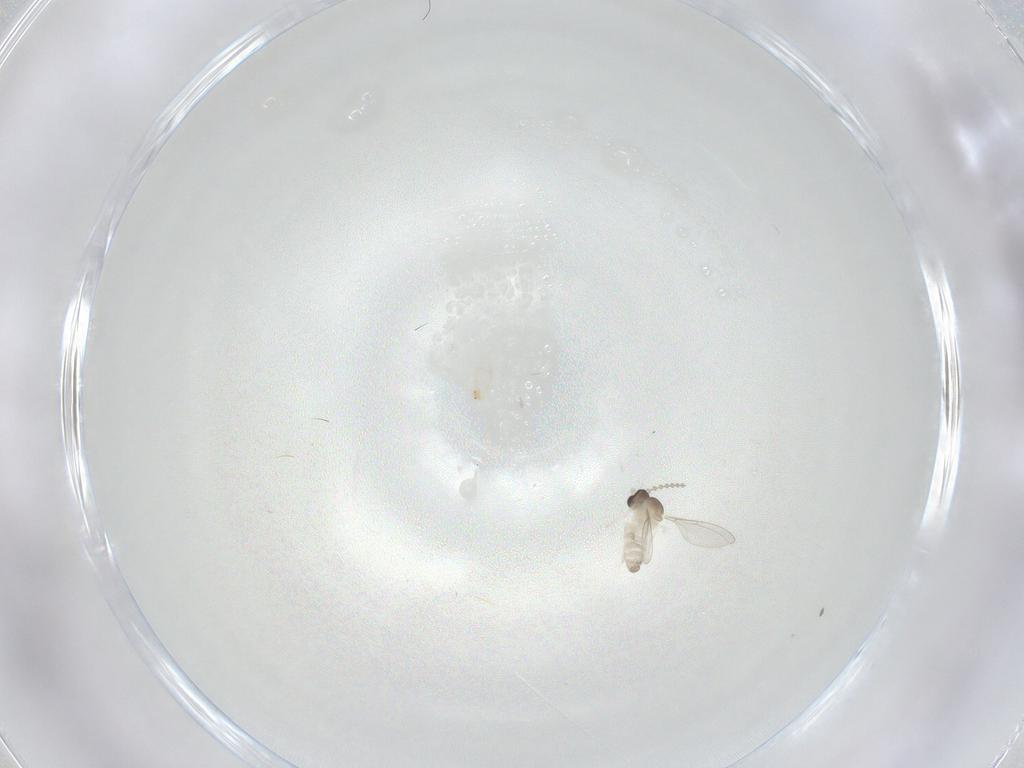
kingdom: Animalia
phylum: Arthropoda
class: Insecta
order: Diptera
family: Cecidomyiidae
